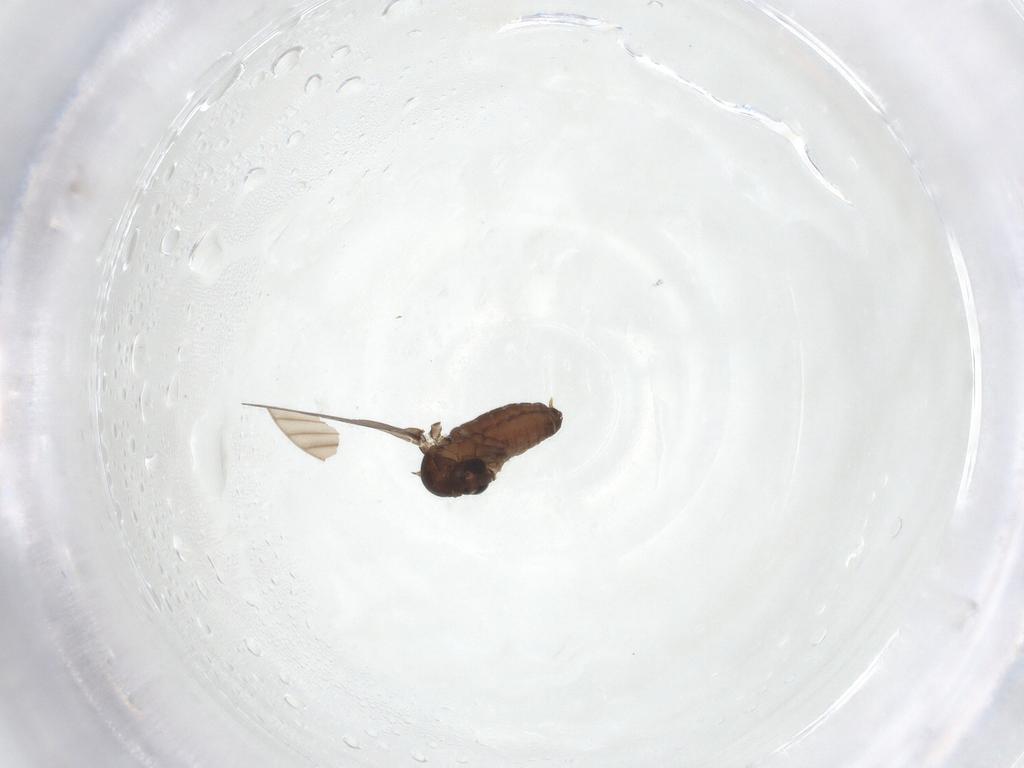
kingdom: Animalia
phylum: Arthropoda
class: Insecta
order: Diptera
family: Psychodidae
